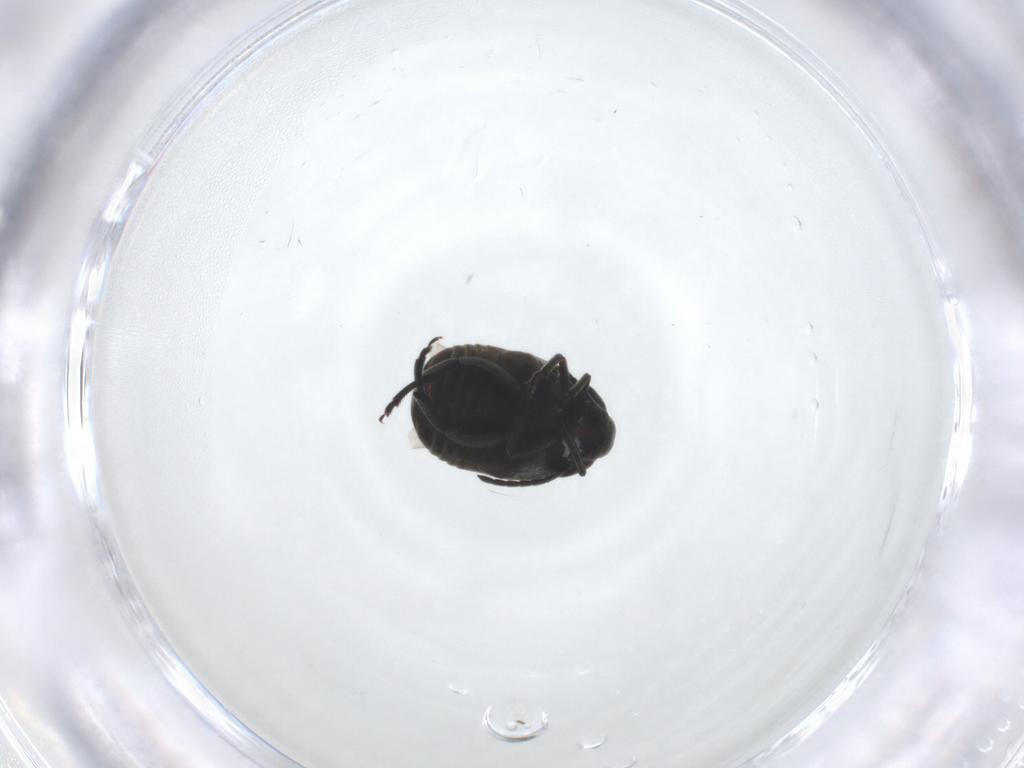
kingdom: Animalia
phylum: Arthropoda
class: Insecta
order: Coleoptera
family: Chrysomelidae
